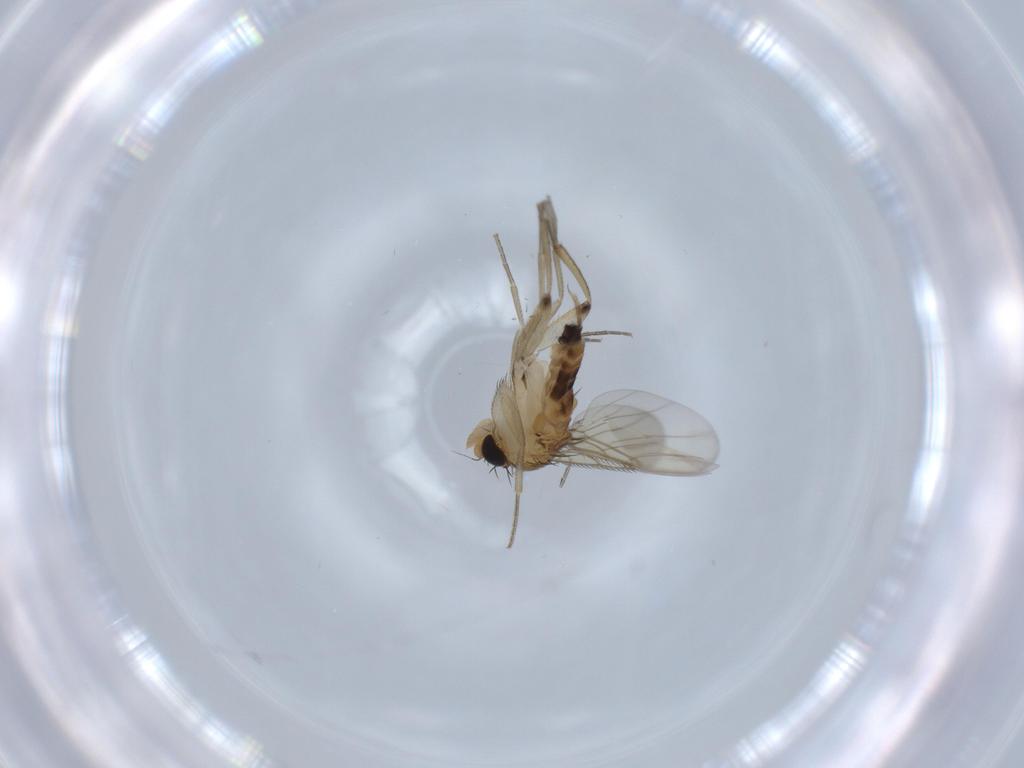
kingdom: Animalia
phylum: Arthropoda
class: Insecta
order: Diptera
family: Phoridae
